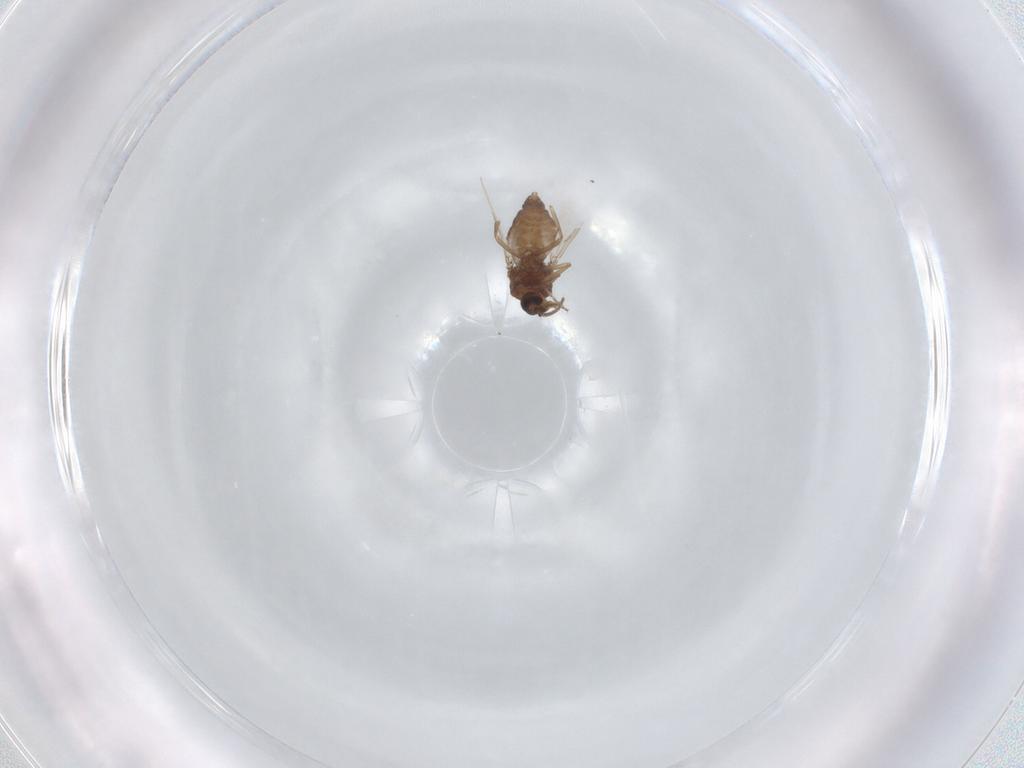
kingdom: Animalia
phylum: Arthropoda
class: Insecta
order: Diptera
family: Ceratopogonidae
